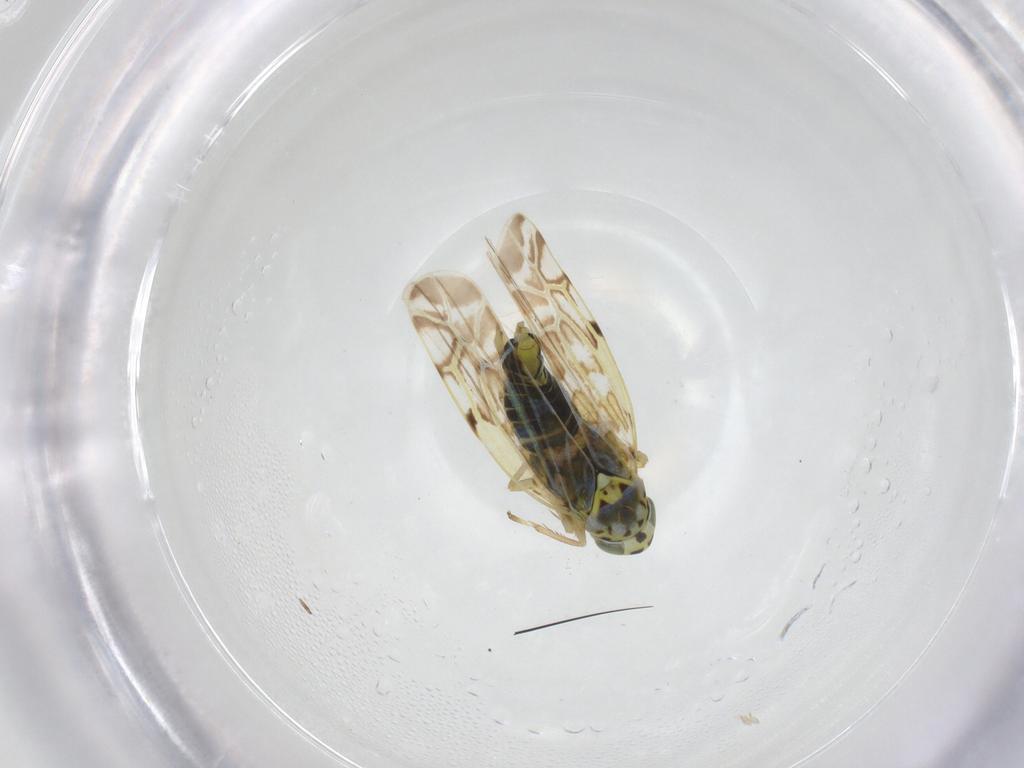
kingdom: Animalia
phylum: Arthropoda
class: Insecta
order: Hemiptera
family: Cicadellidae
